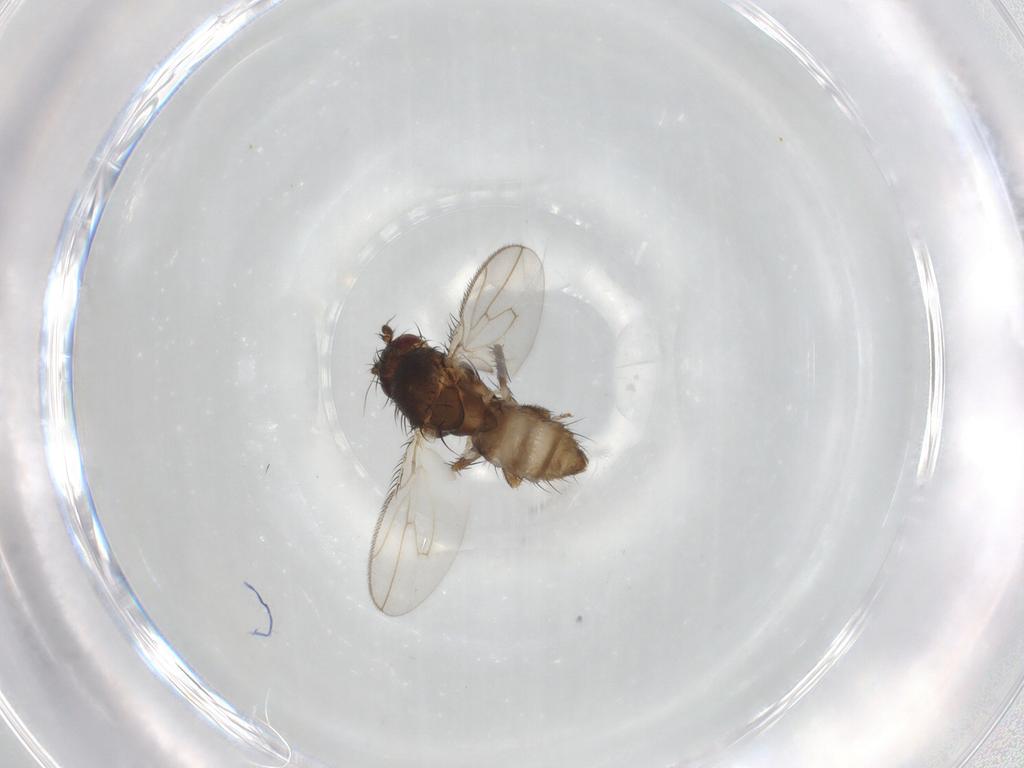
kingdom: Animalia
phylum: Arthropoda
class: Insecta
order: Diptera
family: Sphaeroceridae
